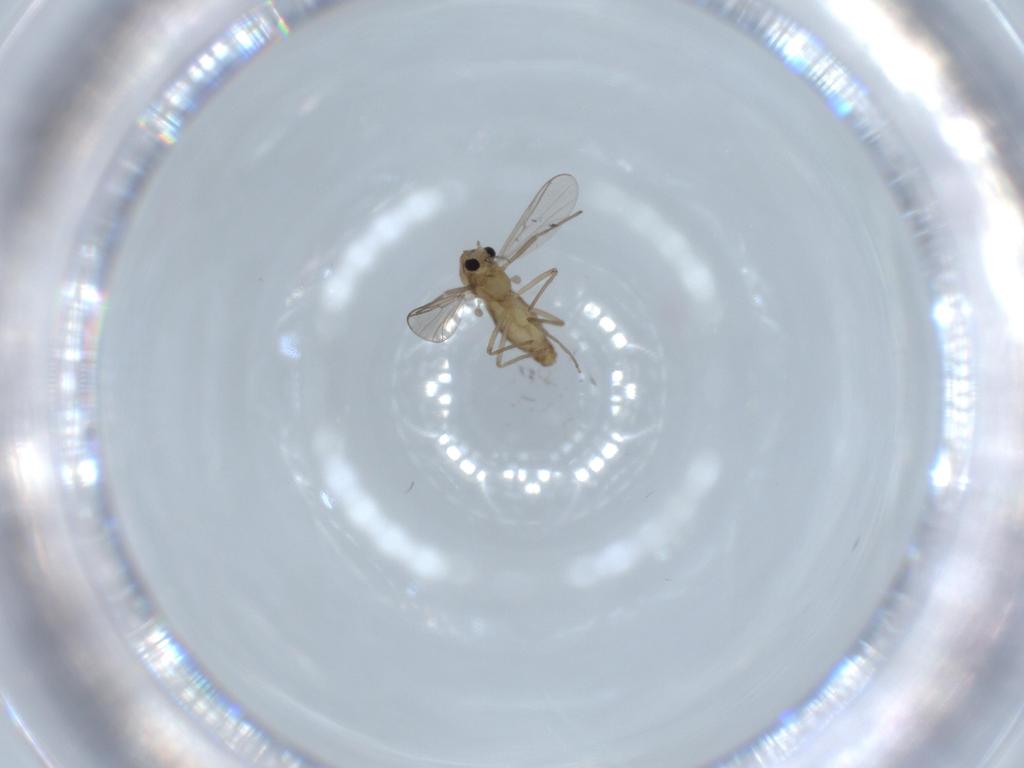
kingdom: Animalia
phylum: Arthropoda
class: Insecta
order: Diptera
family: Chironomidae
